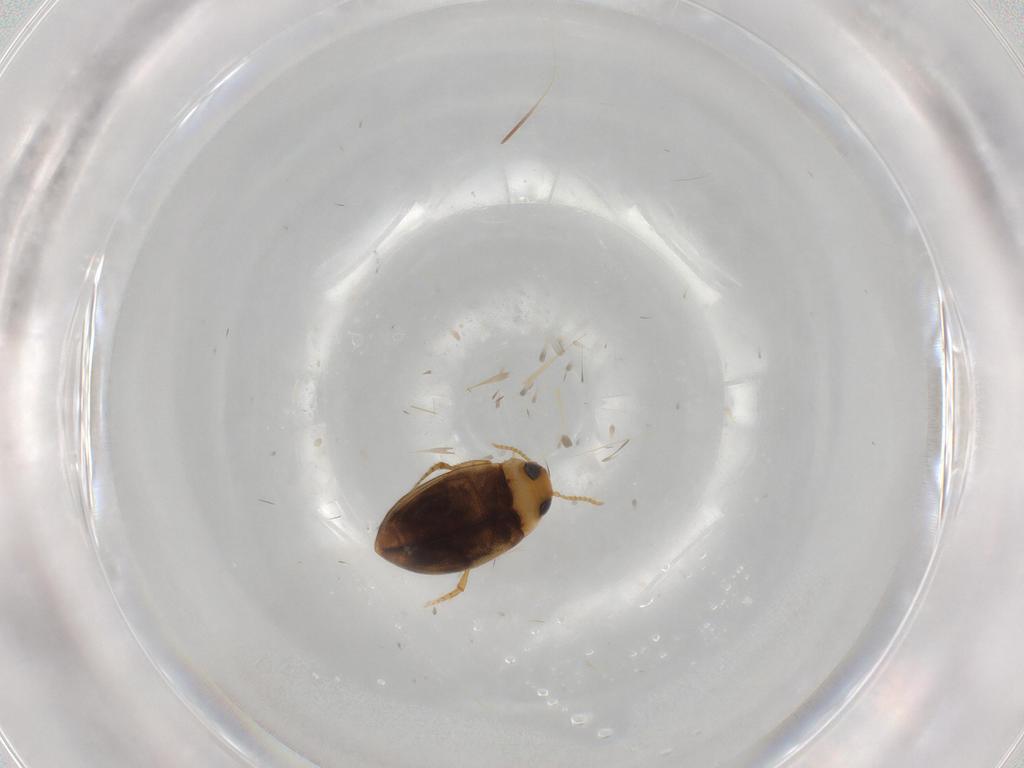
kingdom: Animalia
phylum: Arthropoda
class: Insecta
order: Coleoptera
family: Dytiscidae
